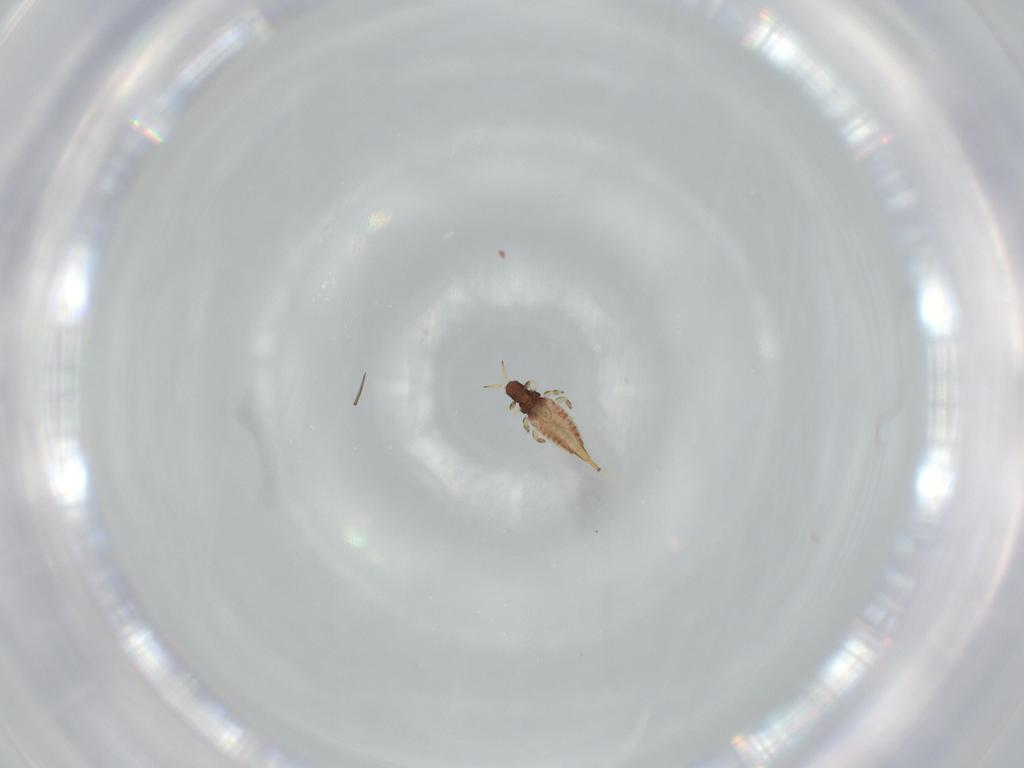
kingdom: Animalia
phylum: Arthropoda
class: Insecta
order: Thysanoptera
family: Phlaeothripidae
